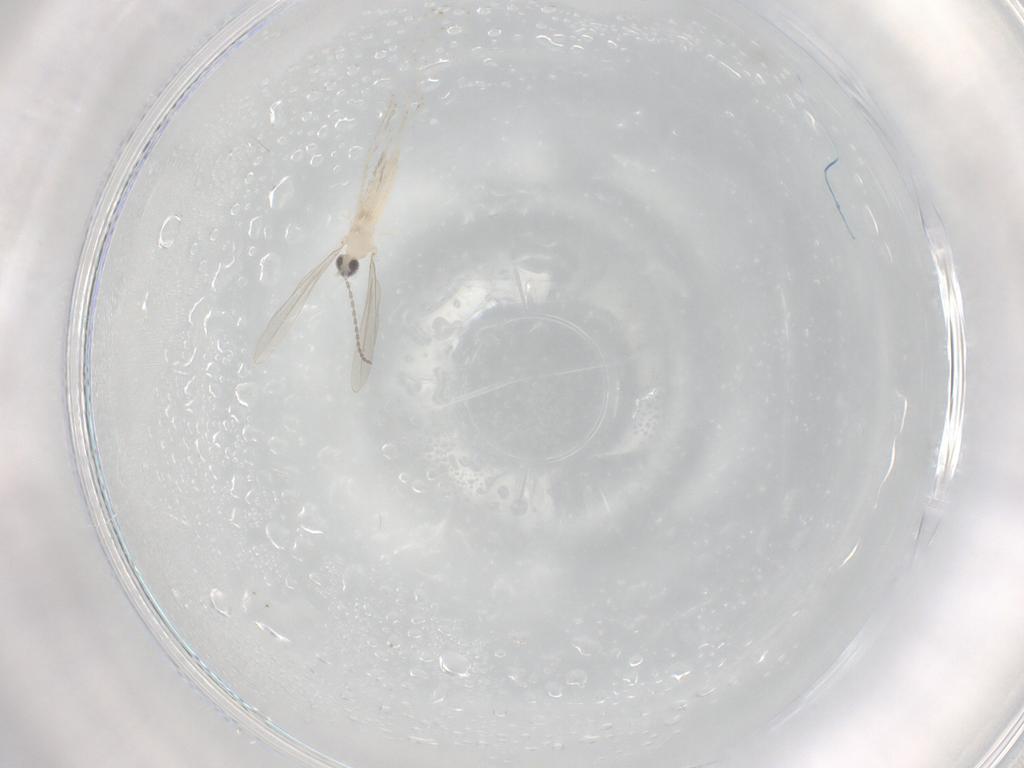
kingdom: Animalia
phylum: Arthropoda
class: Insecta
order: Diptera
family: Cecidomyiidae
